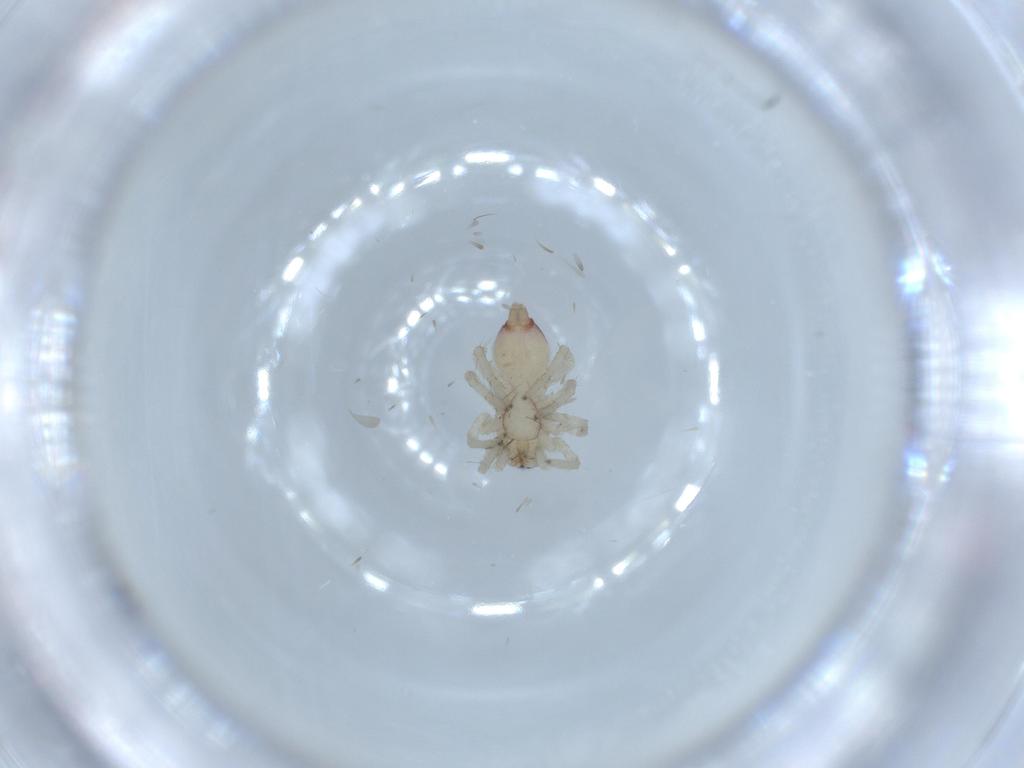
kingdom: Animalia
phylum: Arthropoda
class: Arachnida
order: Araneae
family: Clubionidae
